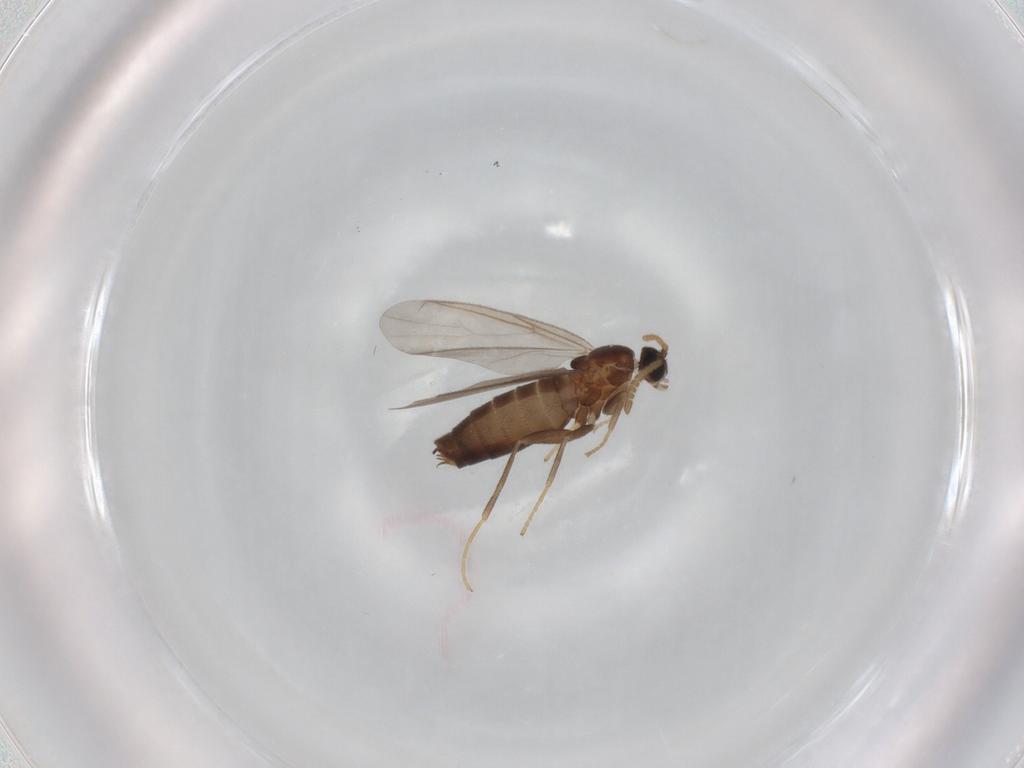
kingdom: Animalia
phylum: Arthropoda
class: Insecta
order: Diptera
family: Scatopsidae
